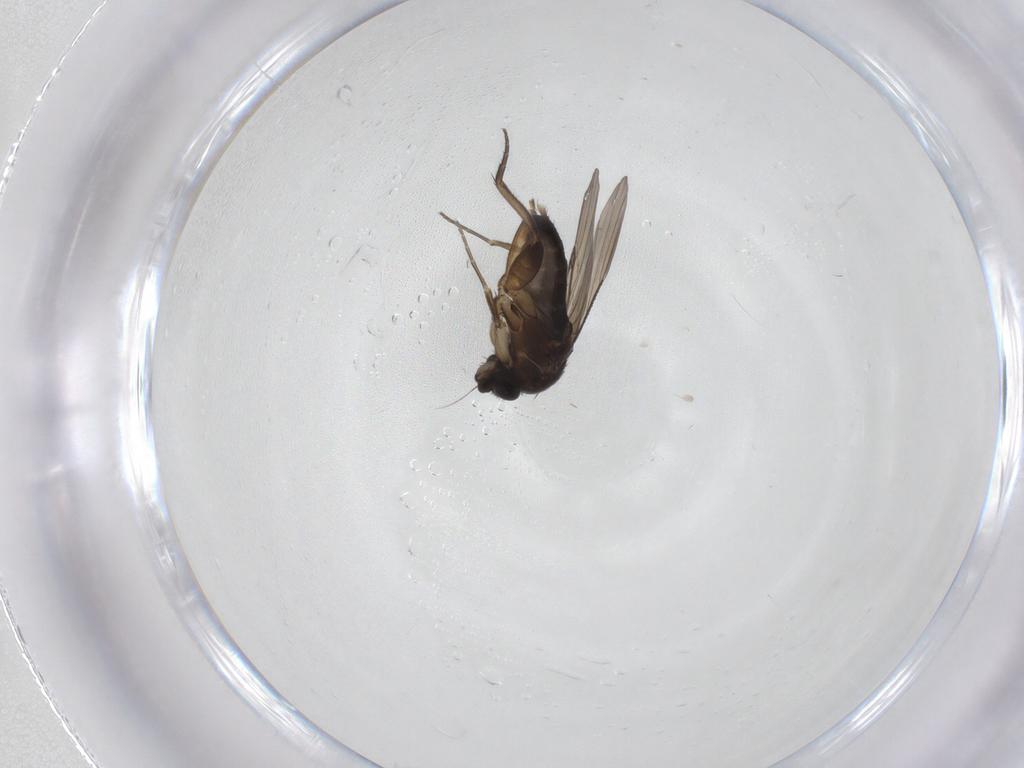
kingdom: Animalia
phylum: Arthropoda
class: Insecta
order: Diptera
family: Phoridae
